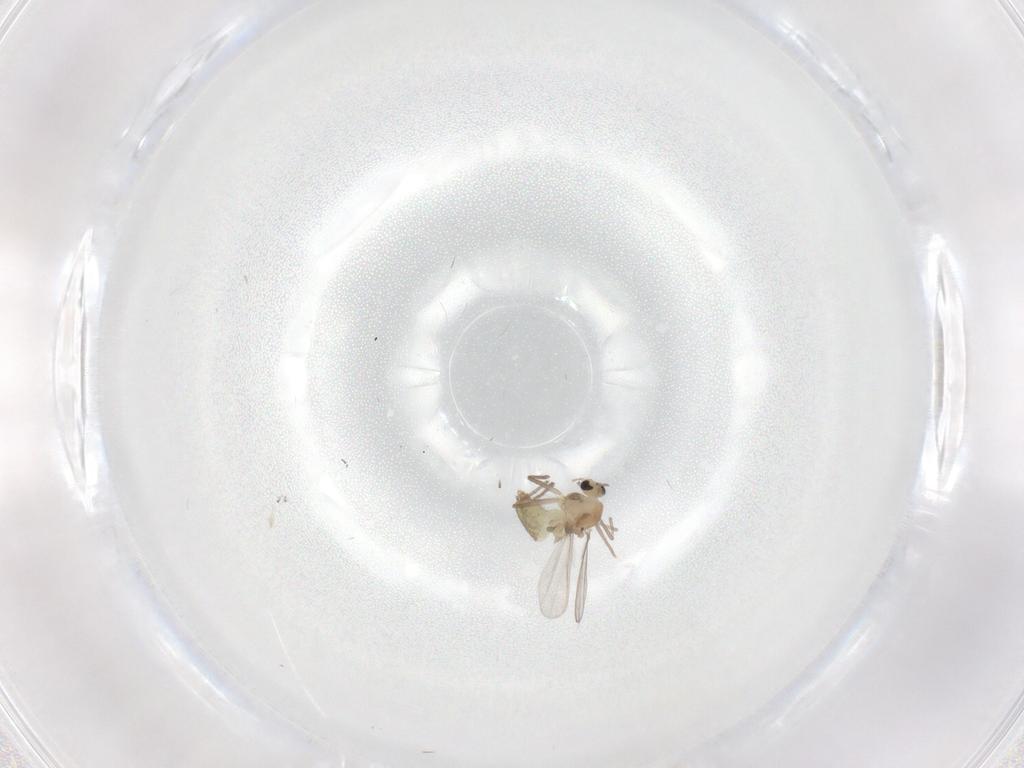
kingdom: Animalia
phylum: Arthropoda
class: Insecta
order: Diptera
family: Chironomidae
